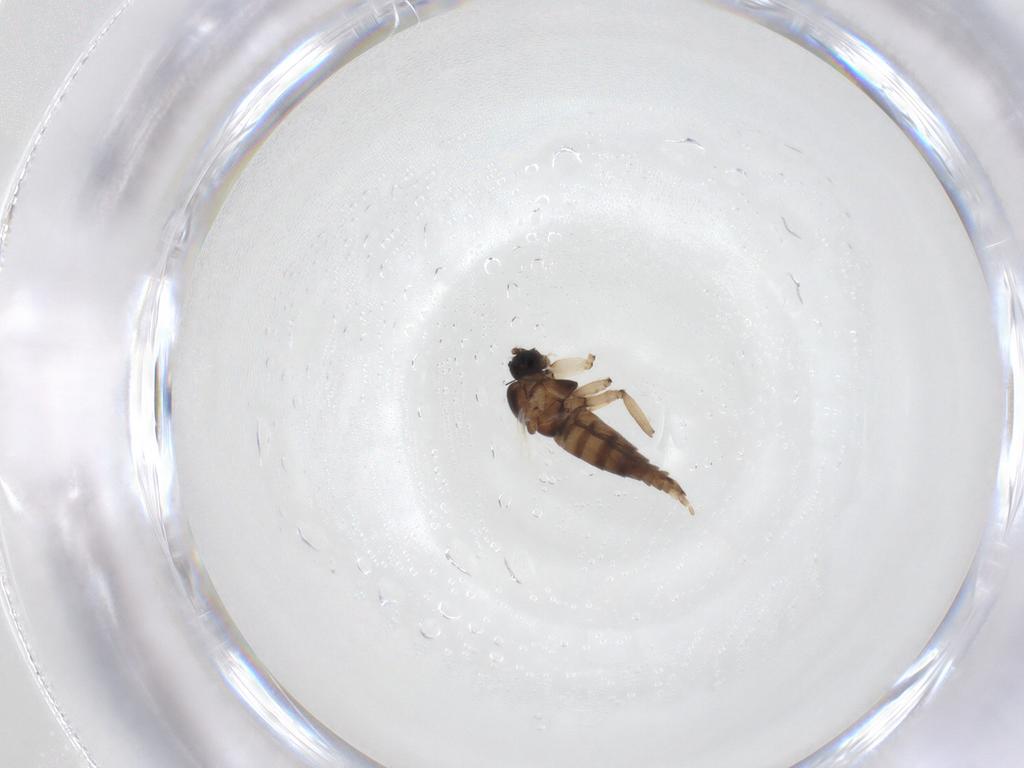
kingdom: Animalia
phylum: Arthropoda
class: Insecta
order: Diptera
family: Sciaridae
